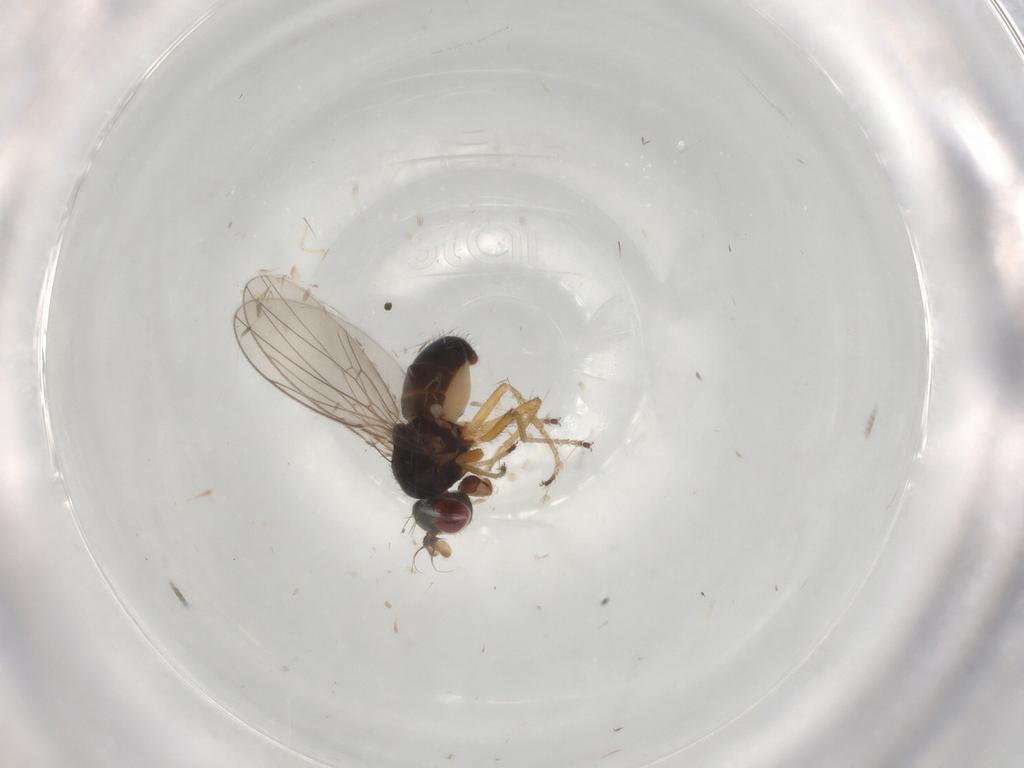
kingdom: Animalia
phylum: Arthropoda
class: Insecta
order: Diptera
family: Ephydridae
